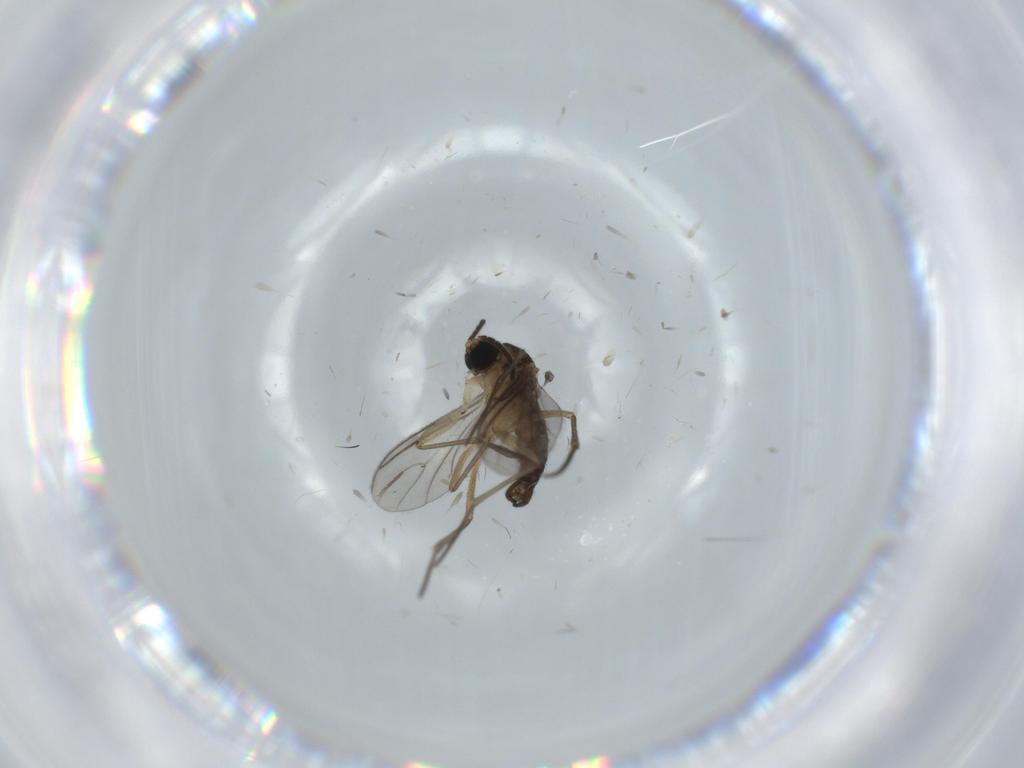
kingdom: Animalia
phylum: Arthropoda
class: Insecta
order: Diptera
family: Sciaridae
